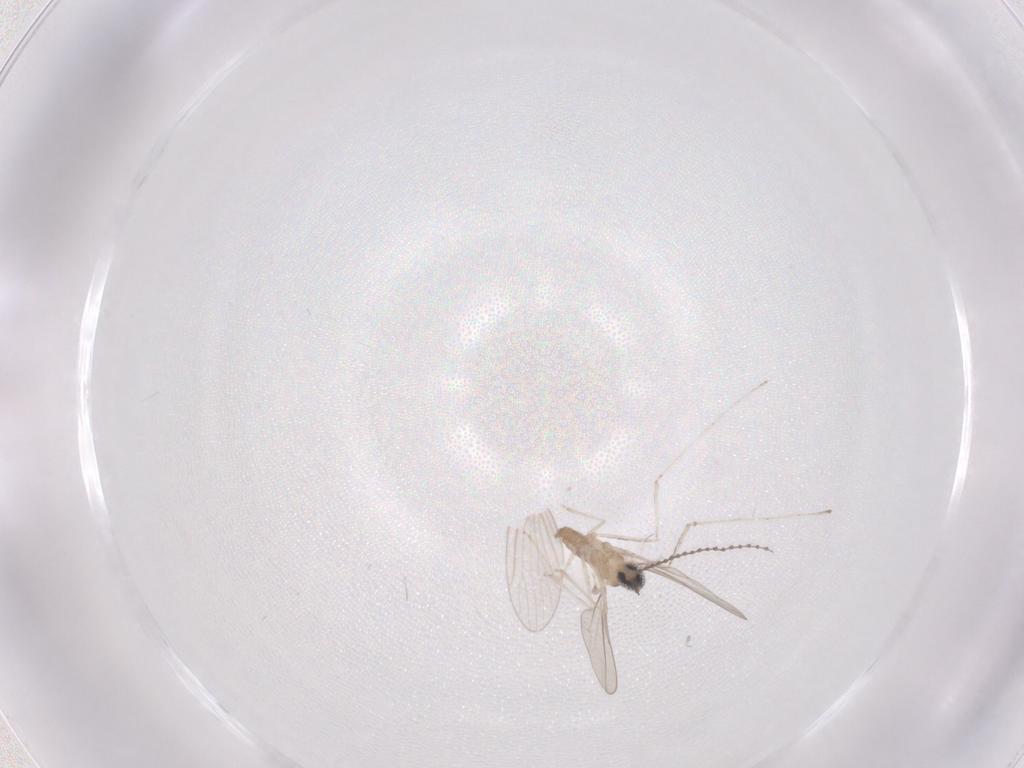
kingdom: Animalia
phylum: Arthropoda
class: Insecta
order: Diptera
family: Cecidomyiidae
